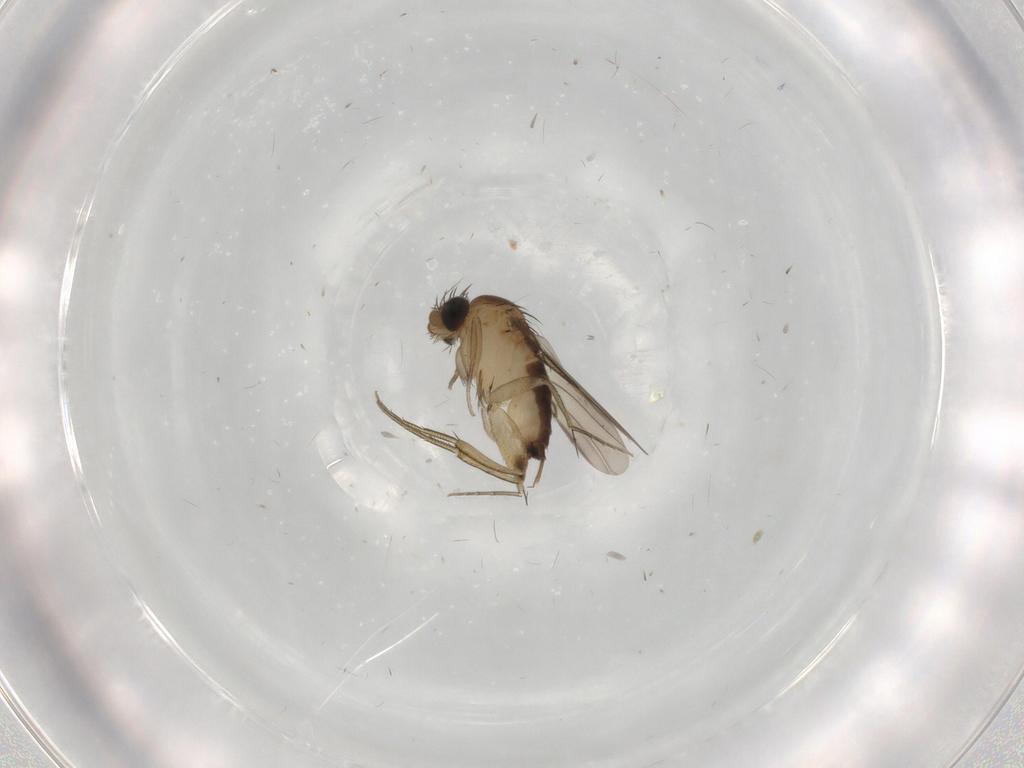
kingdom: Animalia
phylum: Arthropoda
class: Insecta
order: Diptera
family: Phoridae
